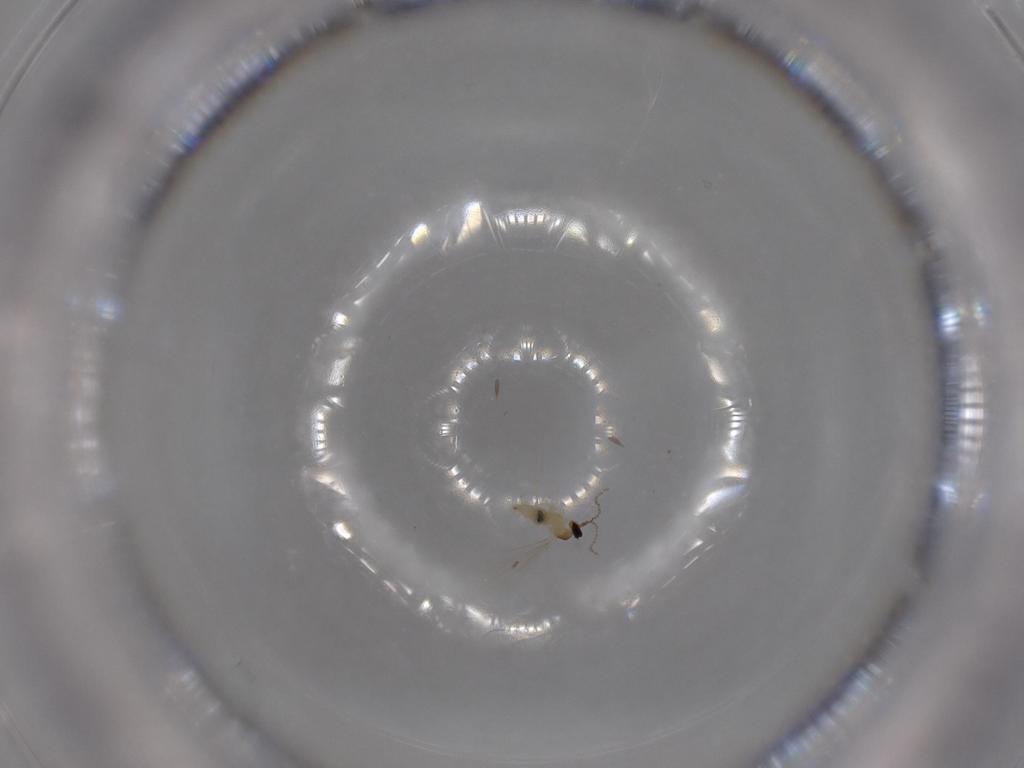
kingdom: Animalia
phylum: Arthropoda
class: Insecta
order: Diptera
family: Cecidomyiidae
